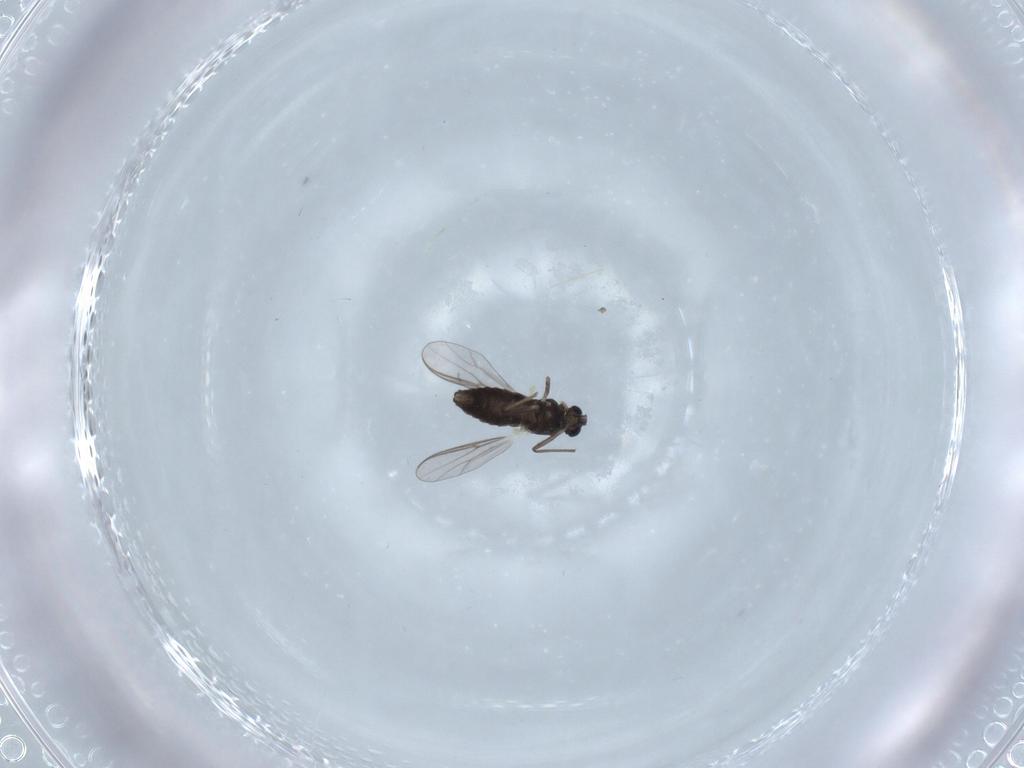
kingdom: Animalia
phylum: Arthropoda
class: Insecta
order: Diptera
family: Chironomidae
